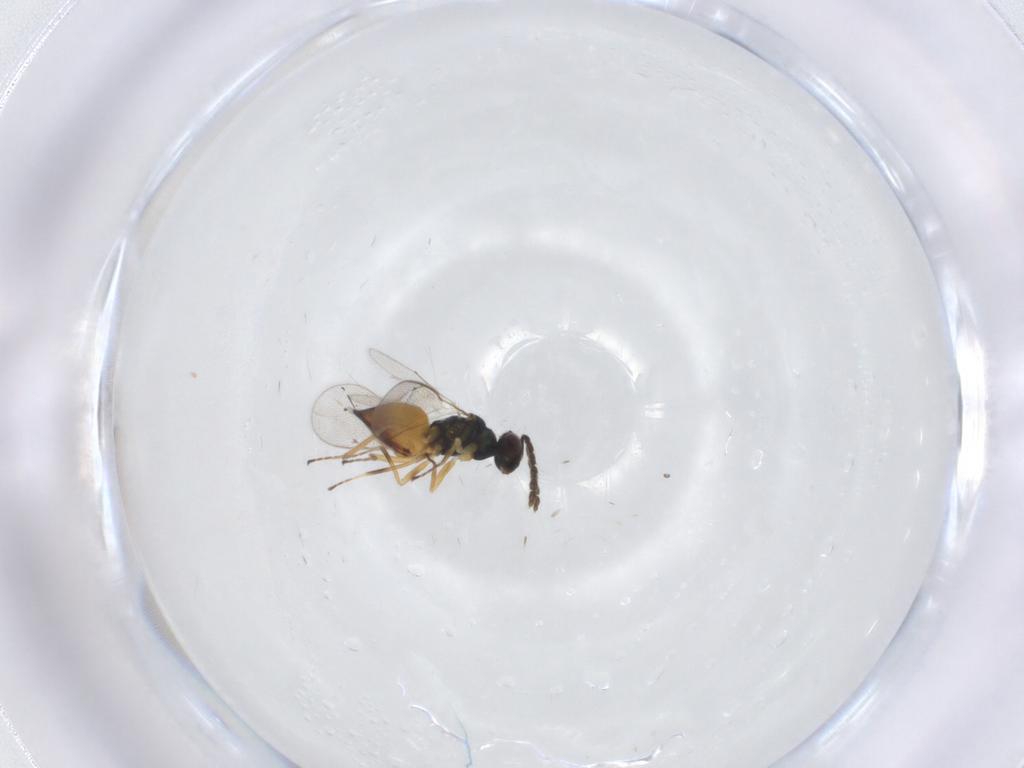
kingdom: Animalia
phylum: Arthropoda
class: Insecta
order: Hymenoptera
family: Eulophidae
